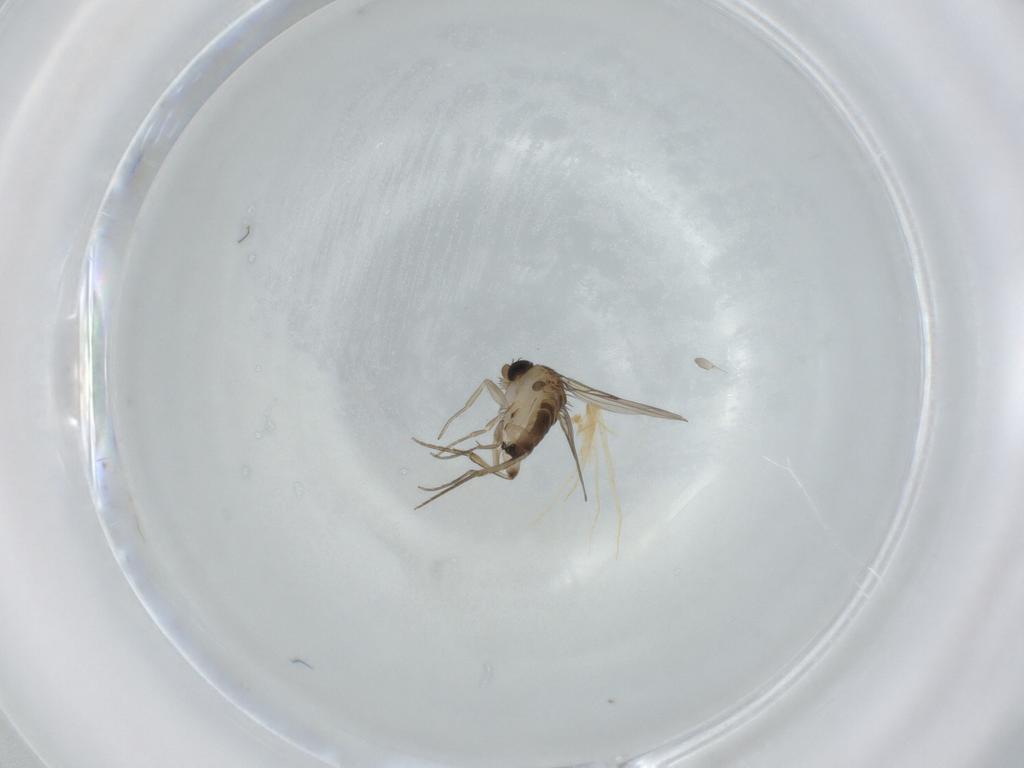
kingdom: Animalia
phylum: Arthropoda
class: Insecta
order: Diptera
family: Phoridae
